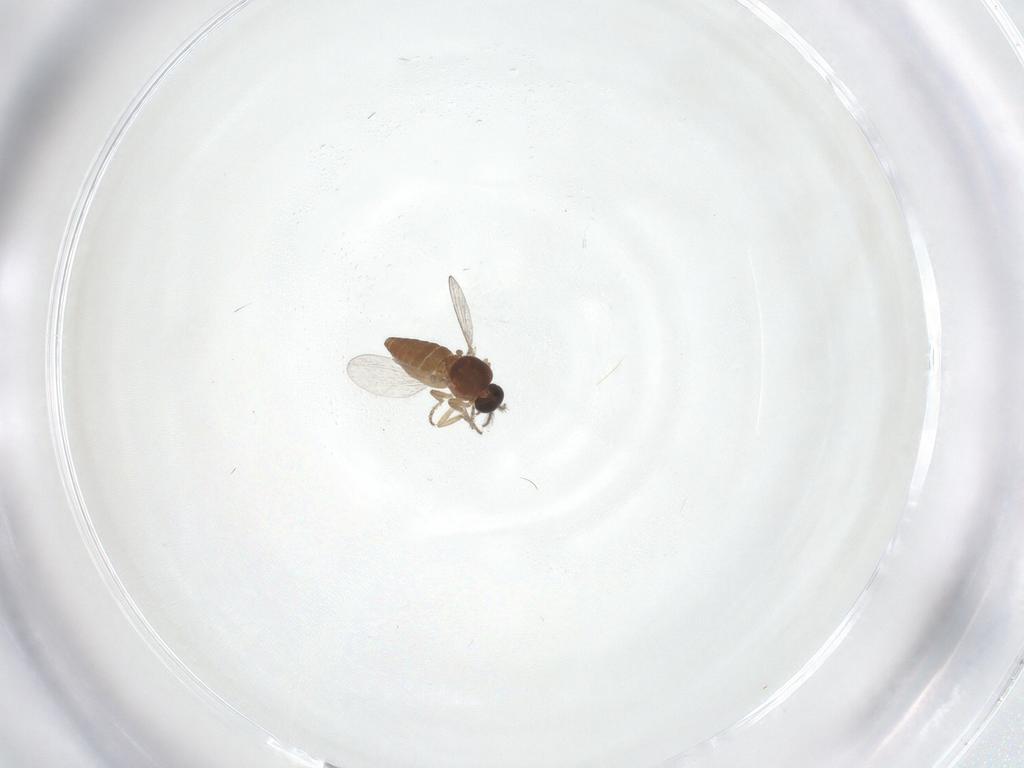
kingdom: Animalia
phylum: Arthropoda
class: Insecta
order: Diptera
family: Ceratopogonidae
